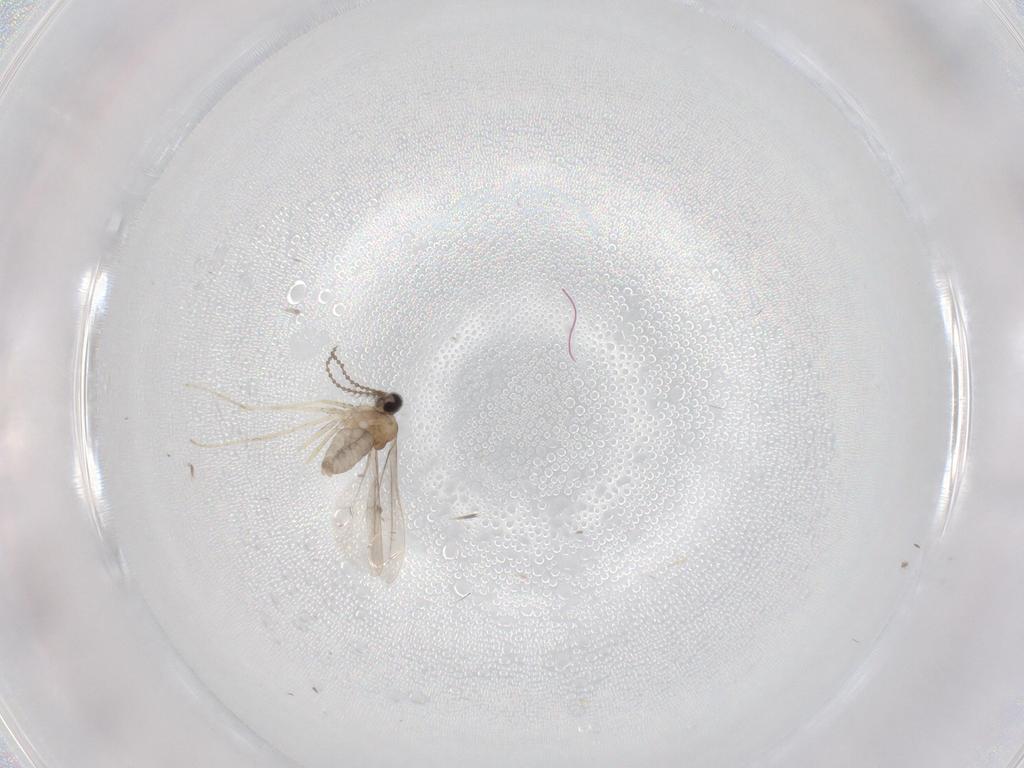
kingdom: Animalia
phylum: Arthropoda
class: Insecta
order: Diptera
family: Cecidomyiidae
